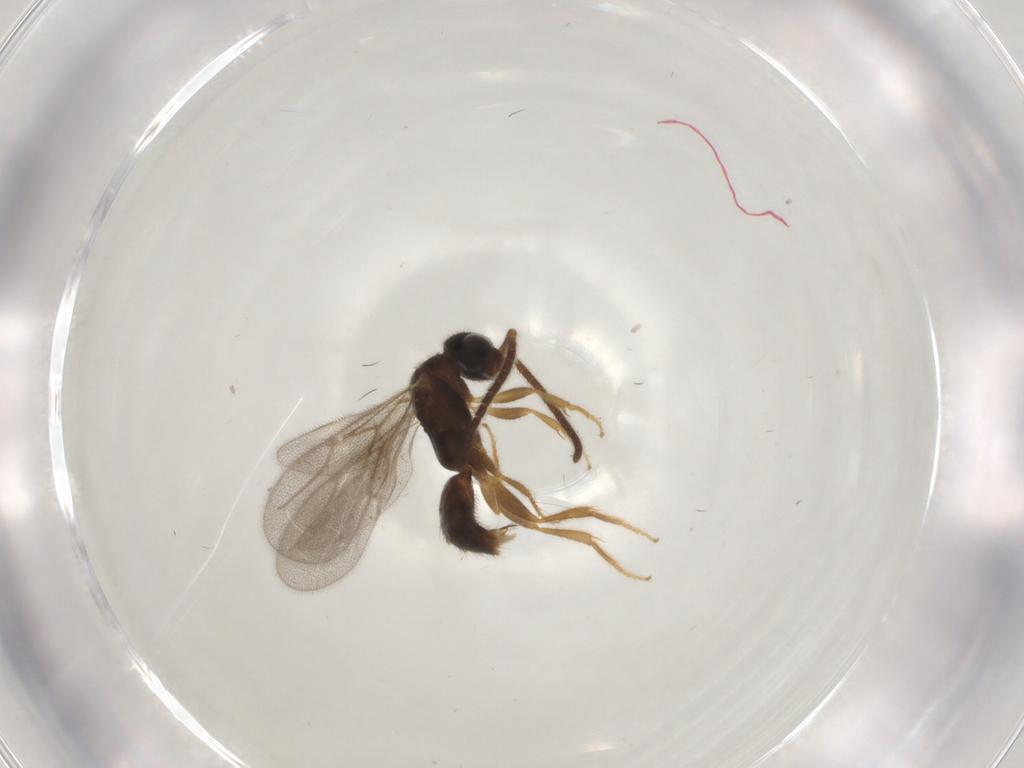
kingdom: Animalia
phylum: Arthropoda
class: Insecta
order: Hymenoptera
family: Bethylidae
